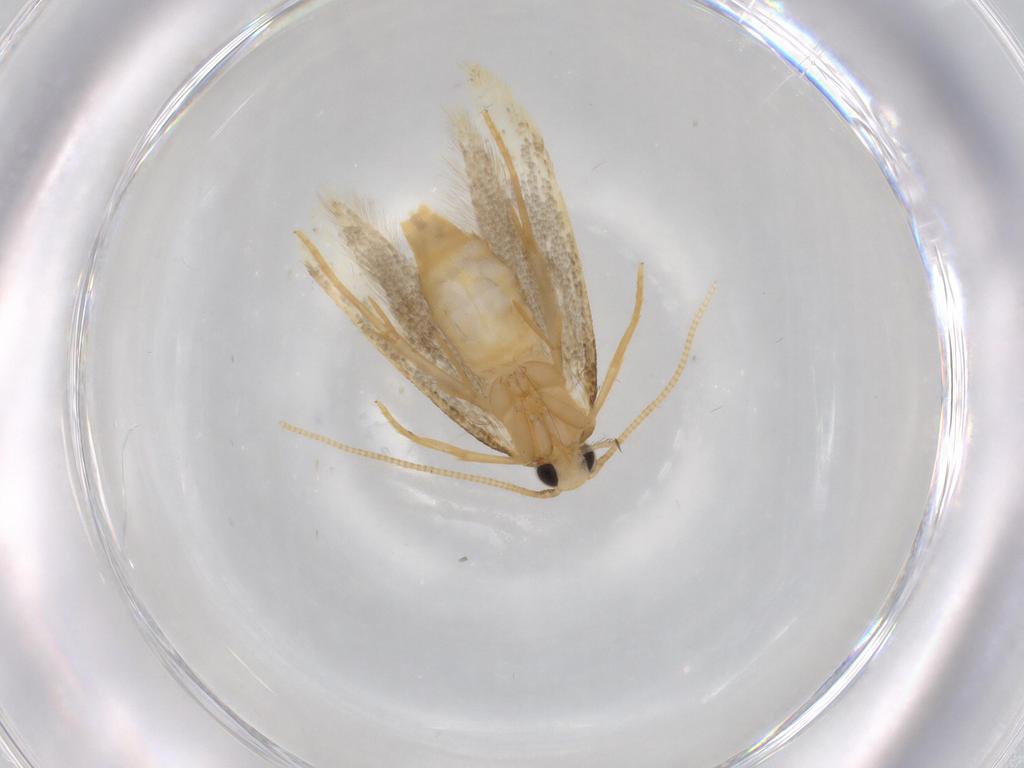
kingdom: Animalia
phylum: Arthropoda
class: Insecta
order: Lepidoptera
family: Tineidae
